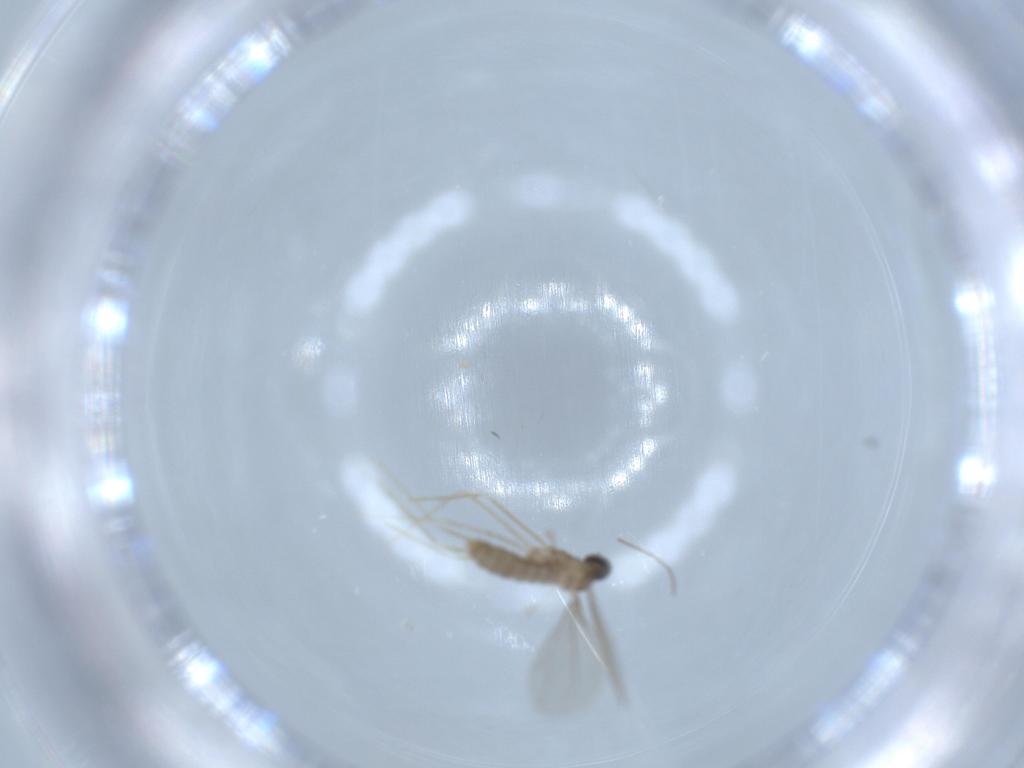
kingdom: Animalia
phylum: Arthropoda
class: Insecta
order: Diptera
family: Cecidomyiidae
